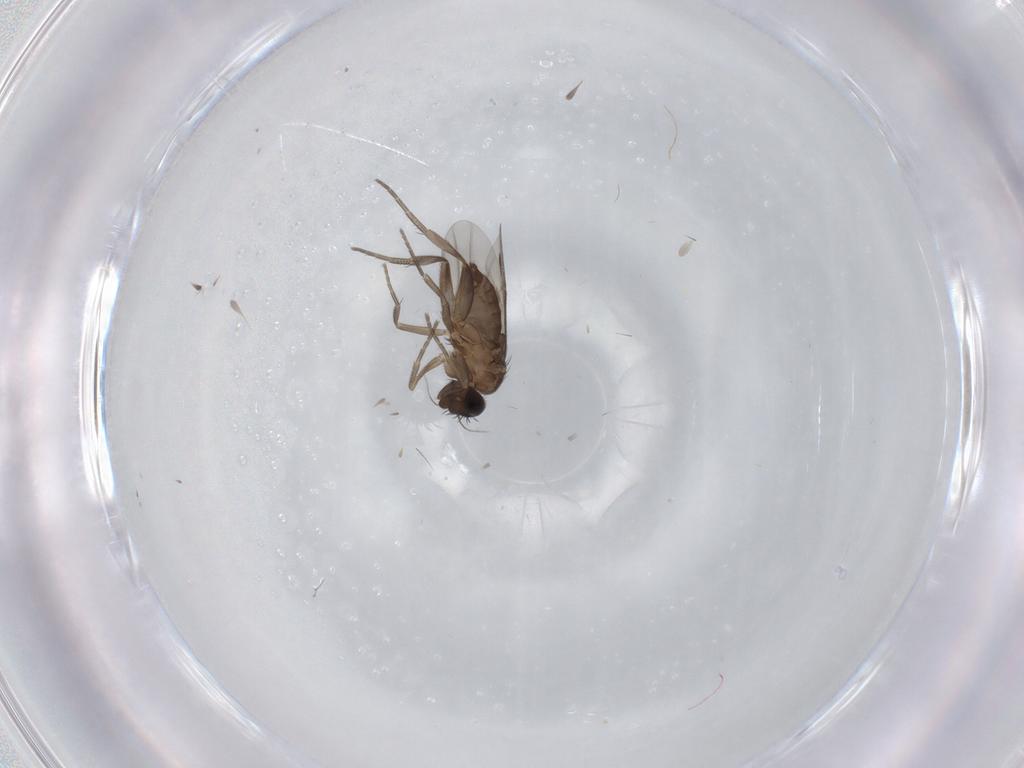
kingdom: Animalia
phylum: Arthropoda
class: Insecta
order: Diptera
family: Phoridae
